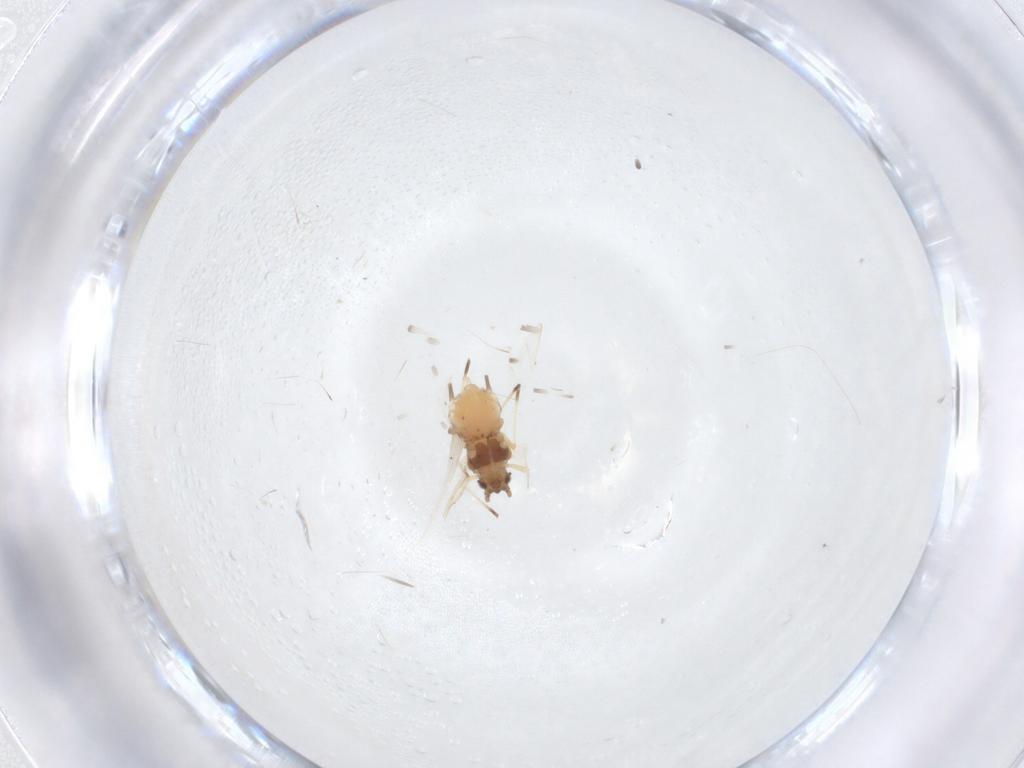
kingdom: Animalia
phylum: Arthropoda
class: Insecta
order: Hemiptera
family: Aphididae
